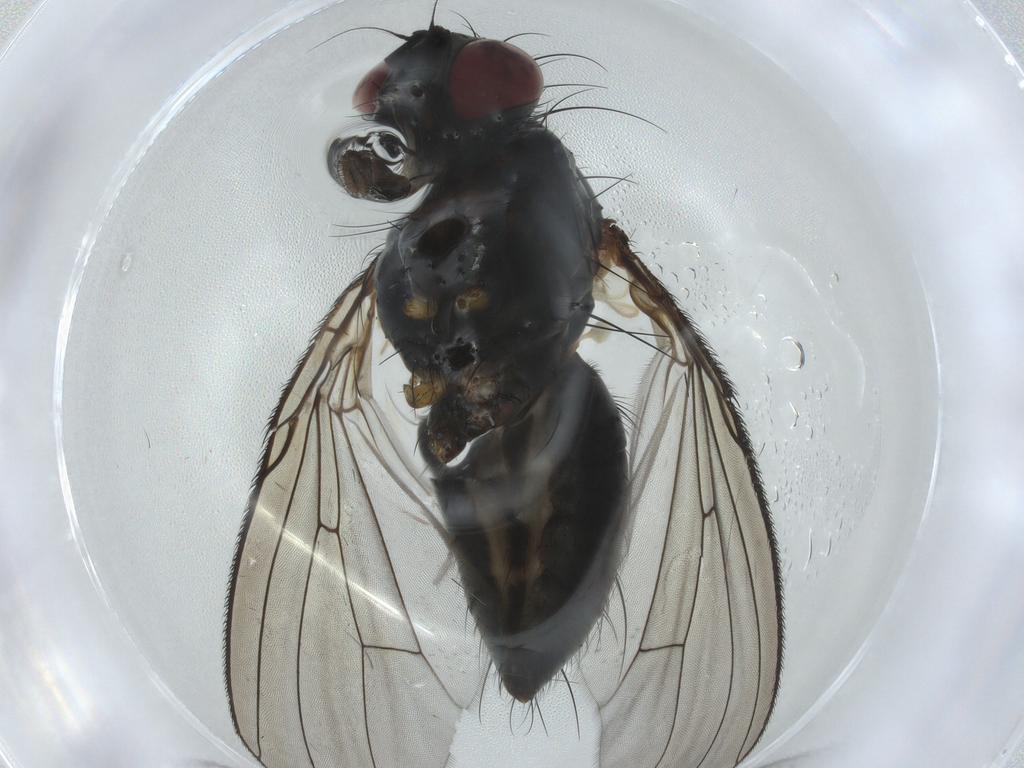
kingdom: Animalia
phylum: Arthropoda
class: Insecta
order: Diptera
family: Muscidae
